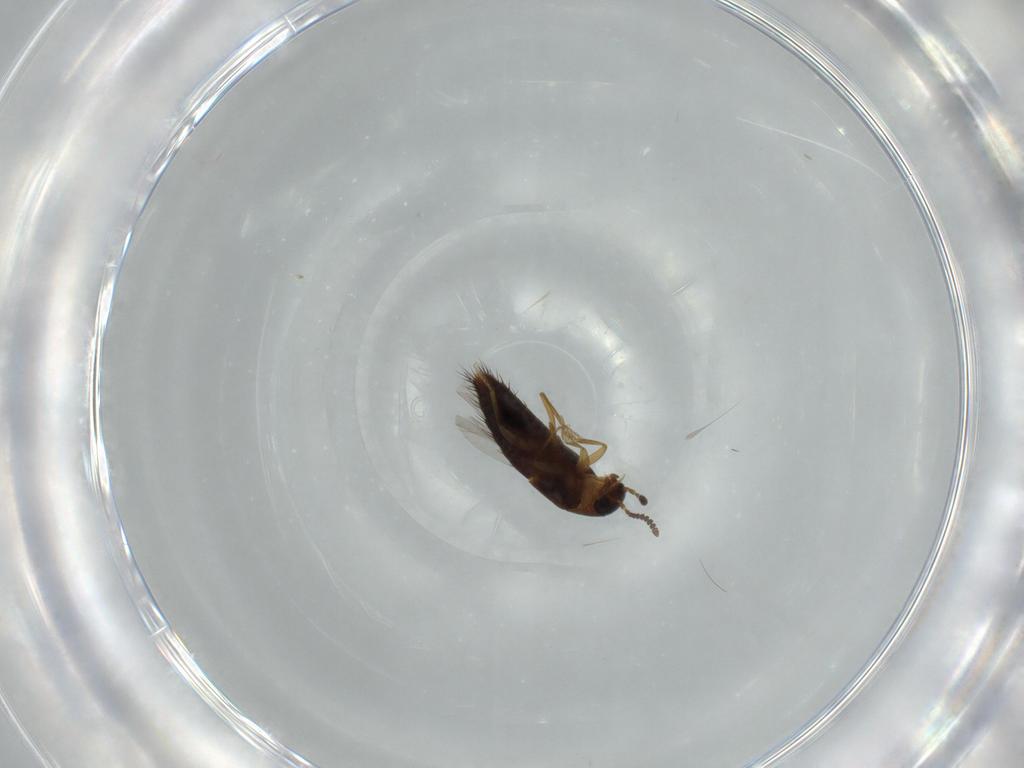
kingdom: Animalia
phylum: Arthropoda
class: Insecta
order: Coleoptera
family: Staphylinidae
